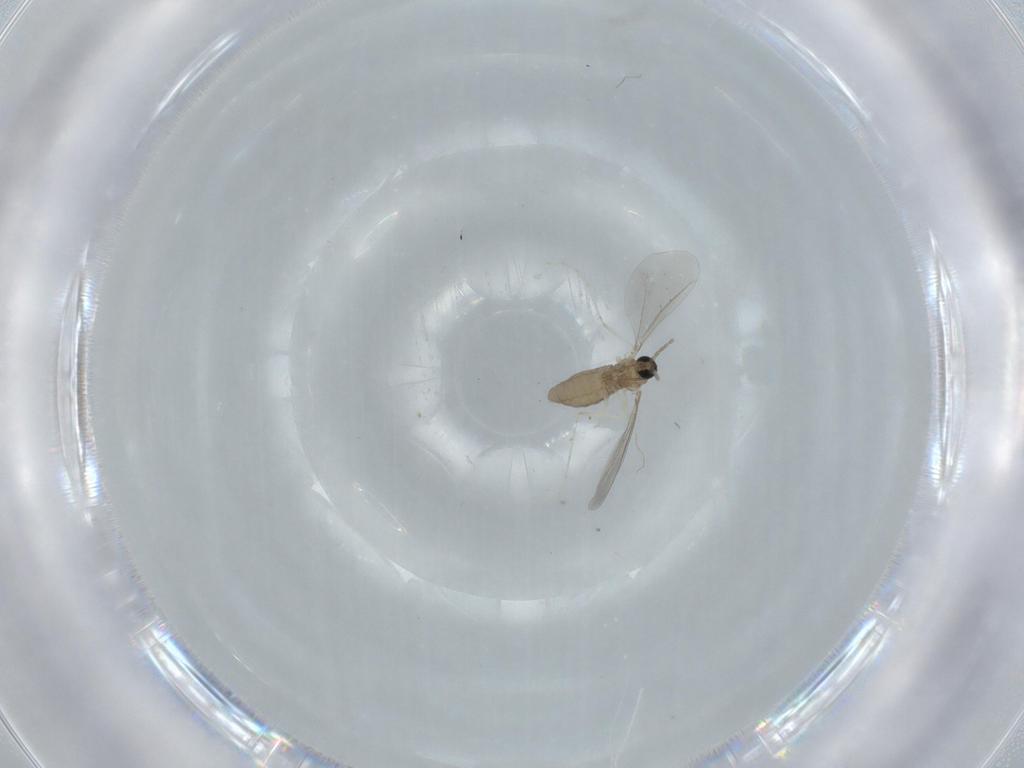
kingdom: Animalia
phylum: Arthropoda
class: Insecta
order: Diptera
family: Cecidomyiidae
